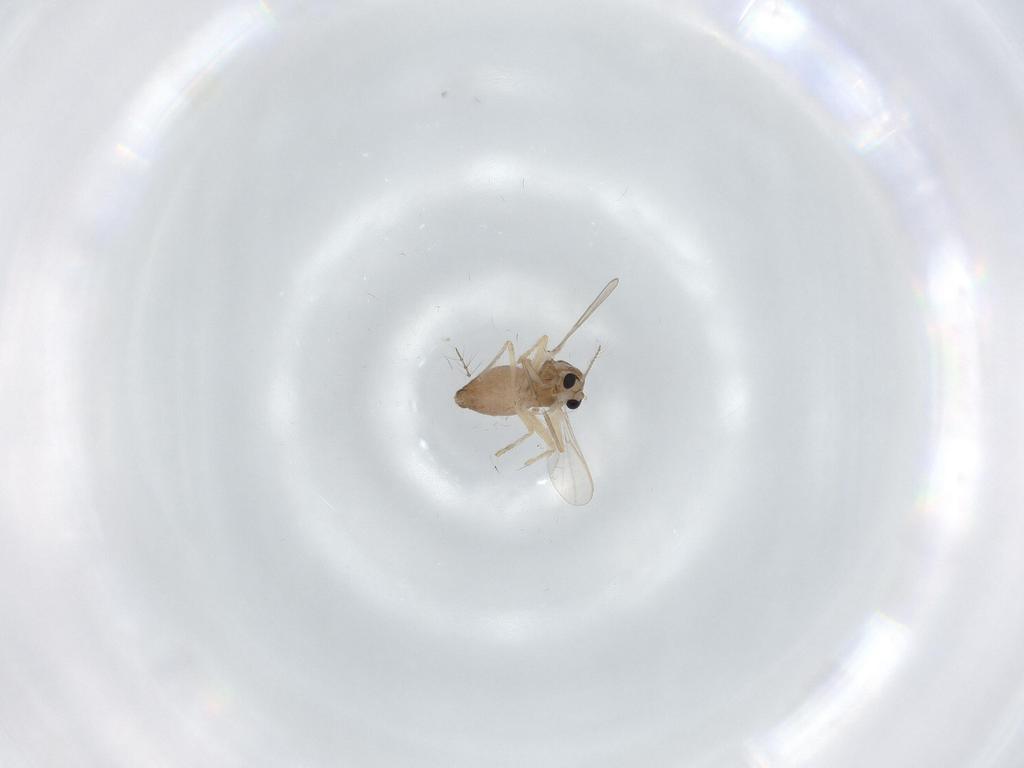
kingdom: Animalia
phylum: Arthropoda
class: Insecta
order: Diptera
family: Chironomidae
